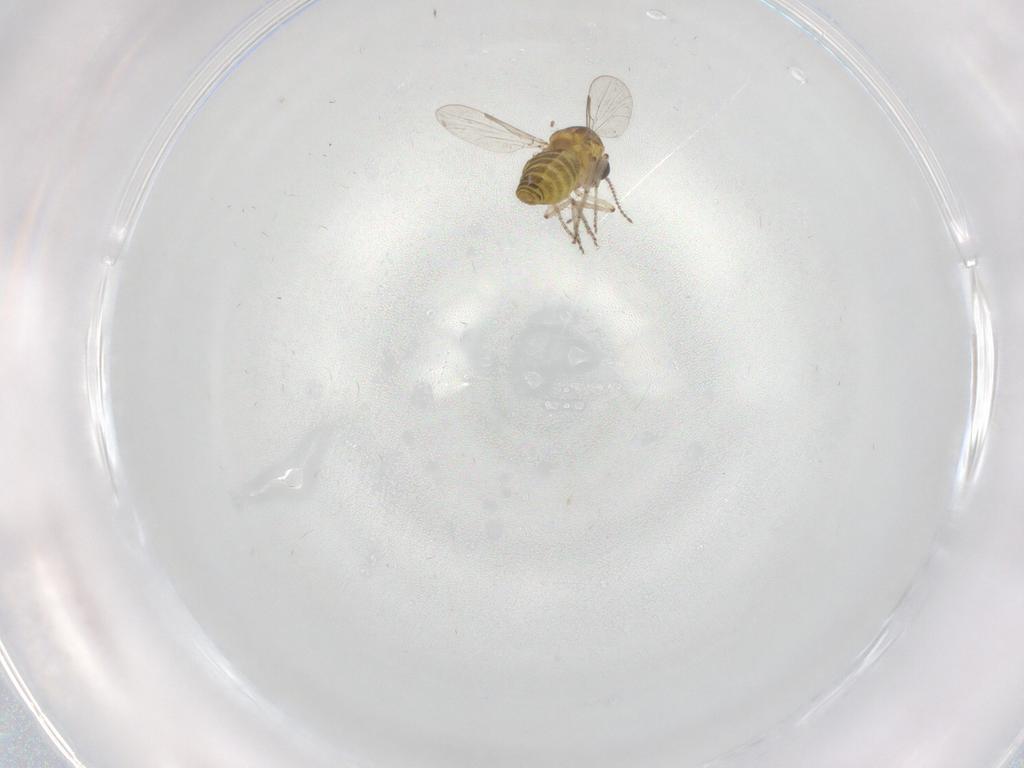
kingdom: Animalia
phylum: Arthropoda
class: Insecta
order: Diptera
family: Ceratopogonidae
